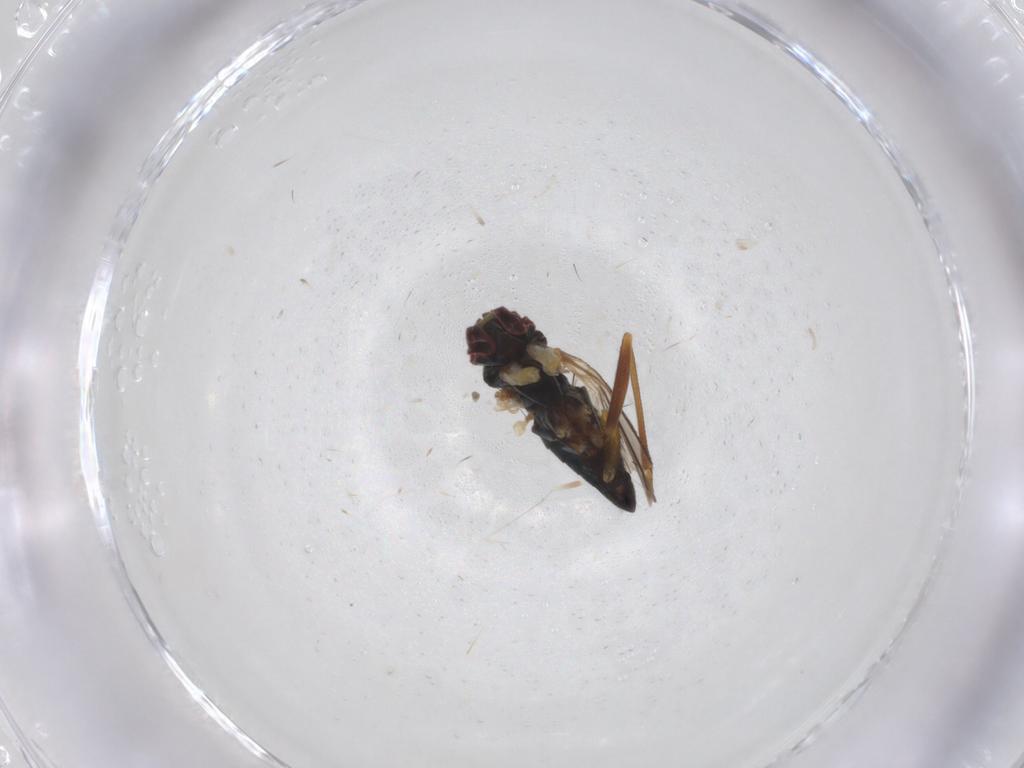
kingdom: Animalia
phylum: Arthropoda
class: Insecta
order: Diptera
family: Dolichopodidae
